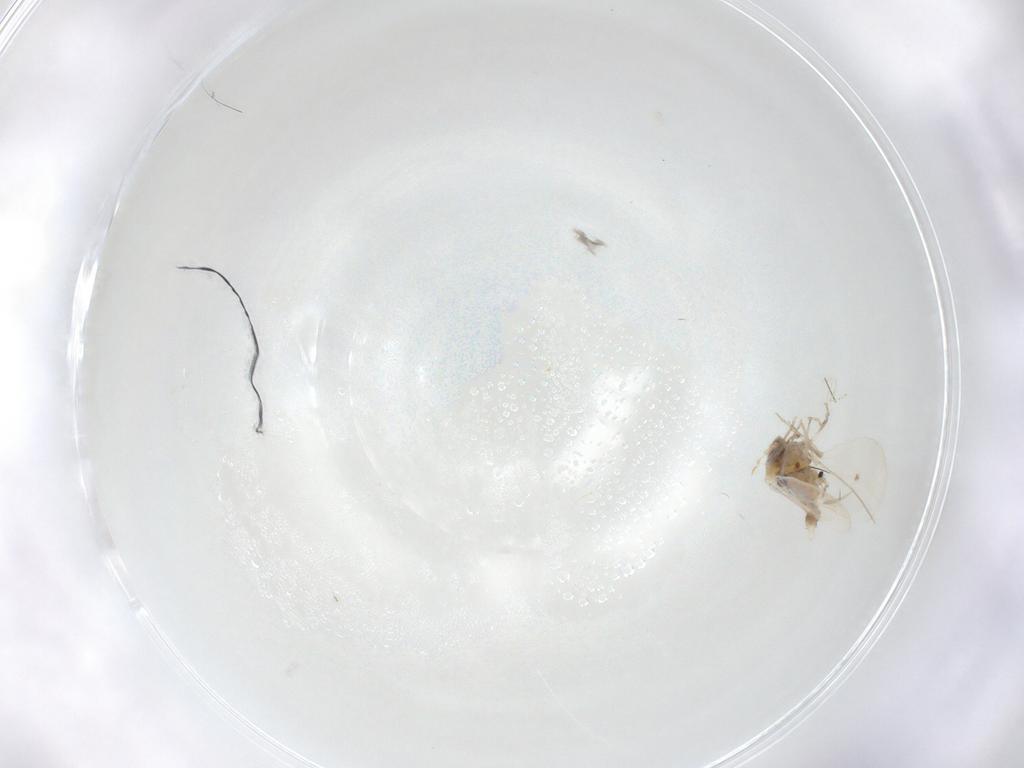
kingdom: Animalia
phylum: Arthropoda
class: Insecta
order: Hemiptera
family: Aleyrodidae
